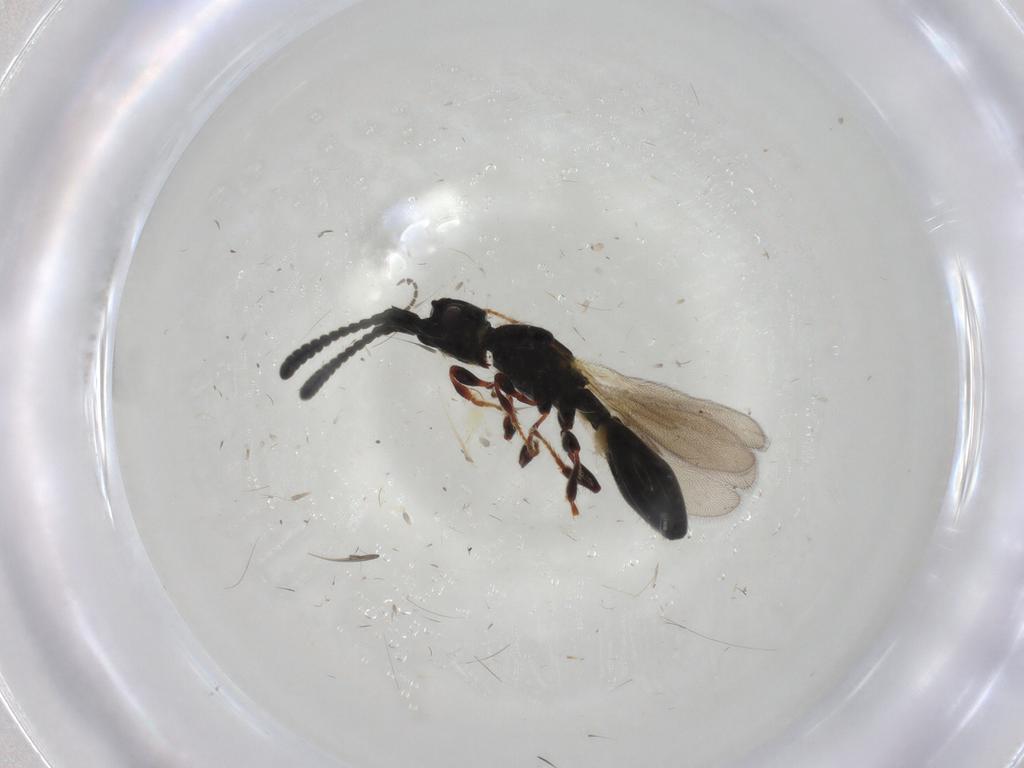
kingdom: Animalia
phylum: Arthropoda
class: Insecta
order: Hymenoptera
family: Diapriidae
